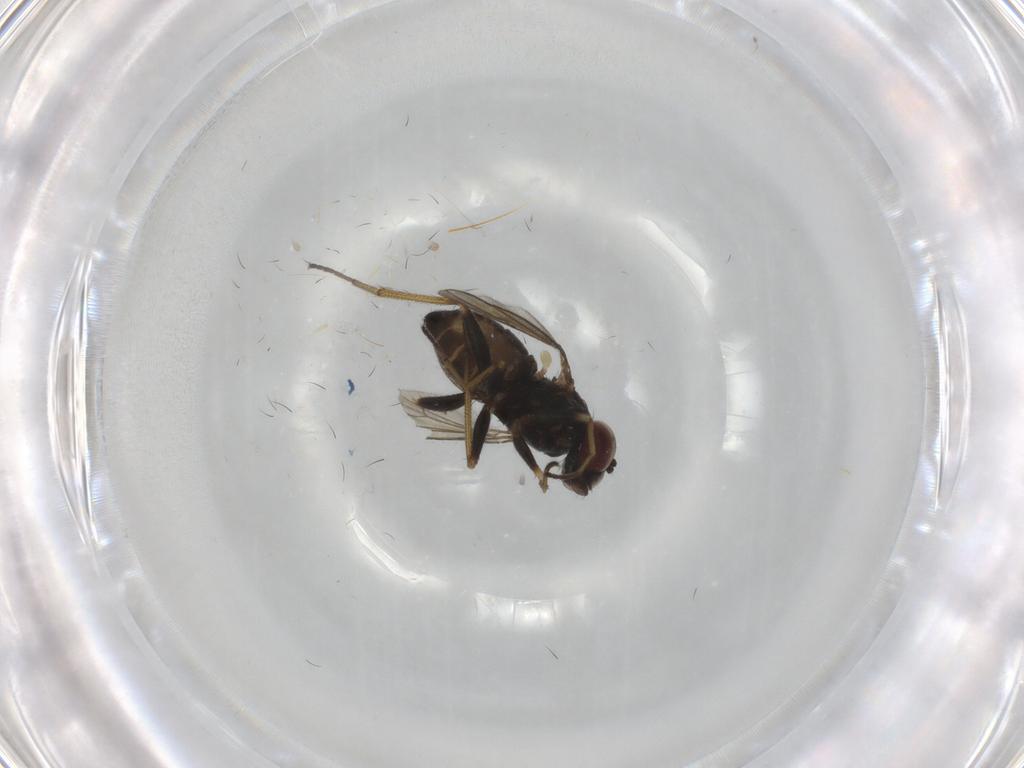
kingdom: Animalia
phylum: Arthropoda
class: Insecta
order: Diptera
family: Dolichopodidae
